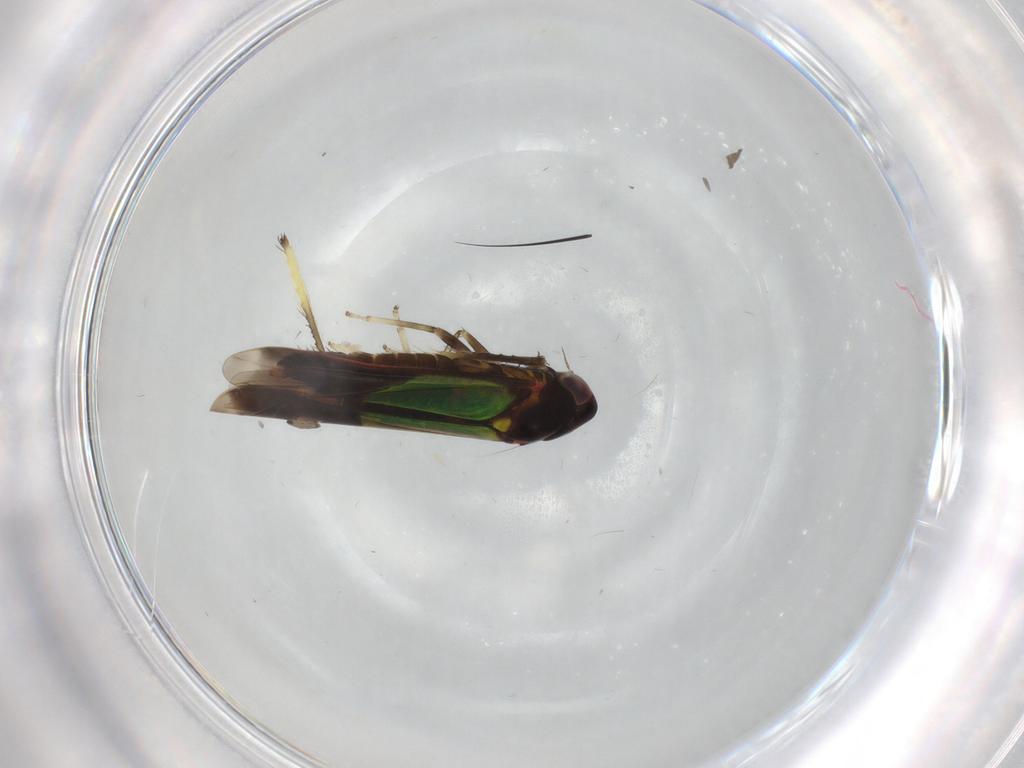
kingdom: Animalia
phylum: Arthropoda
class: Insecta
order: Hemiptera
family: Cicadellidae
